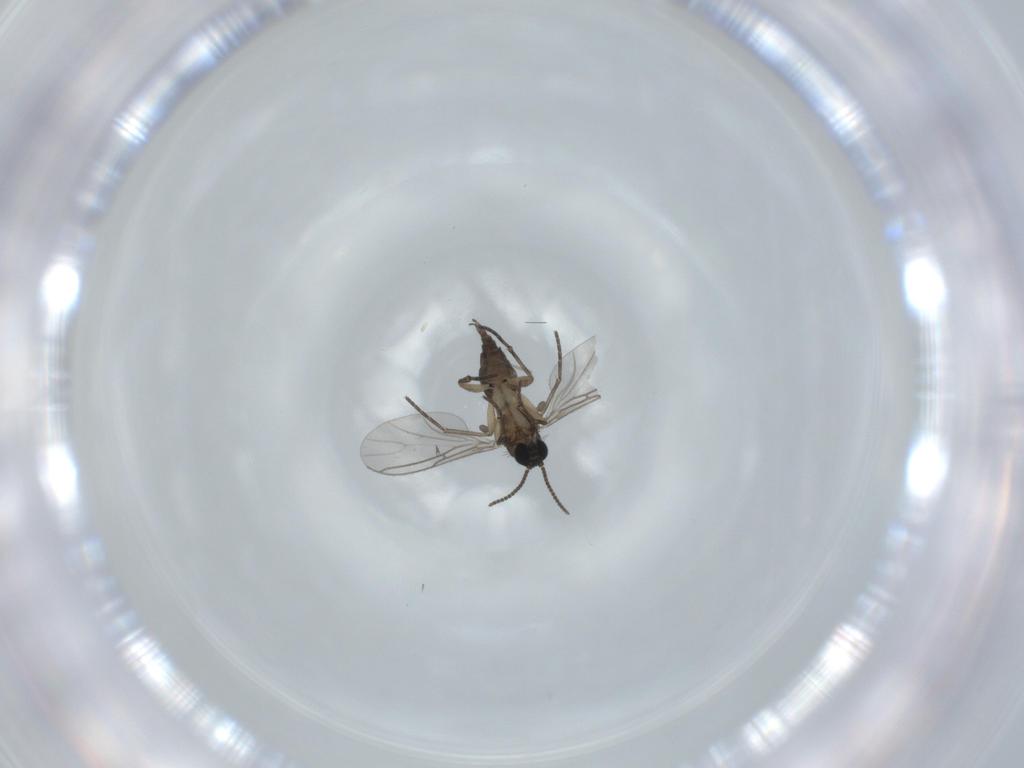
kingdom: Animalia
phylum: Arthropoda
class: Insecta
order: Diptera
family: Sciaridae
